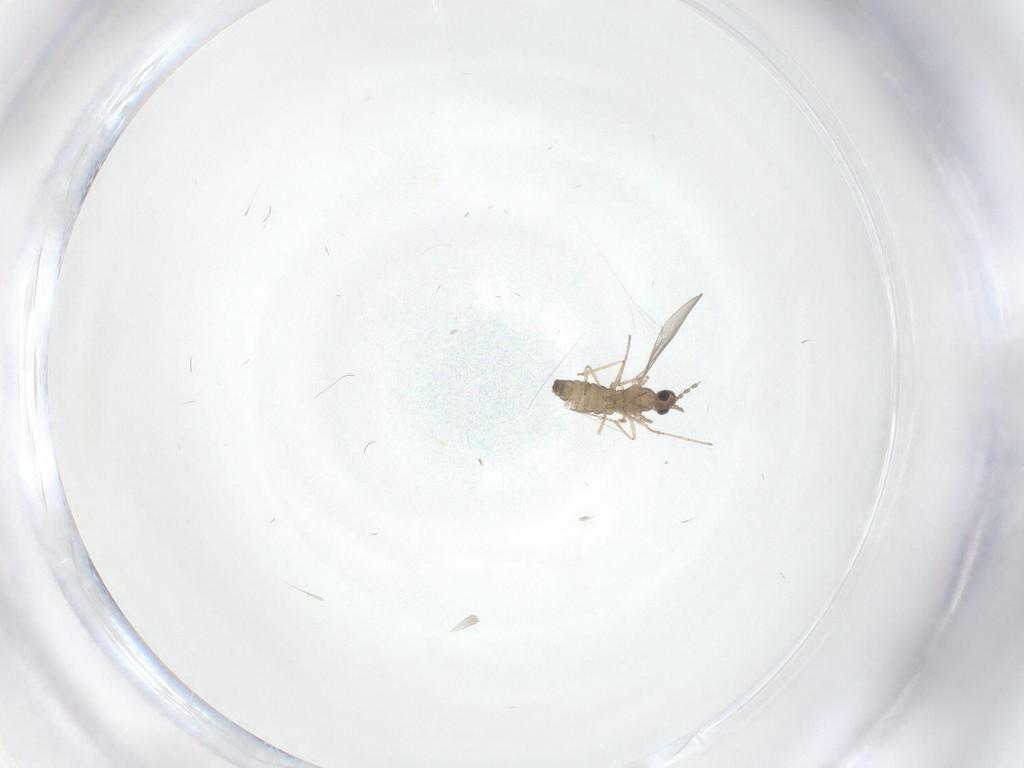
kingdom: Animalia
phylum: Arthropoda
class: Insecta
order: Diptera
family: Cecidomyiidae
